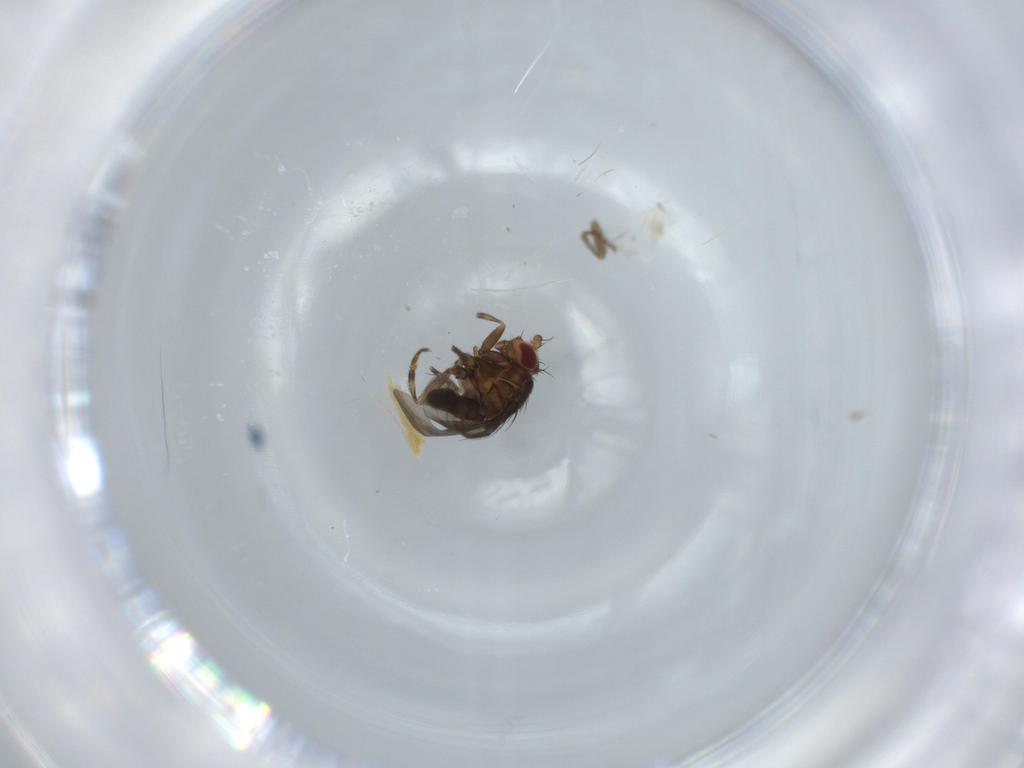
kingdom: Animalia
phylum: Arthropoda
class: Insecta
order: Diptera
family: Cecidomyiidae
